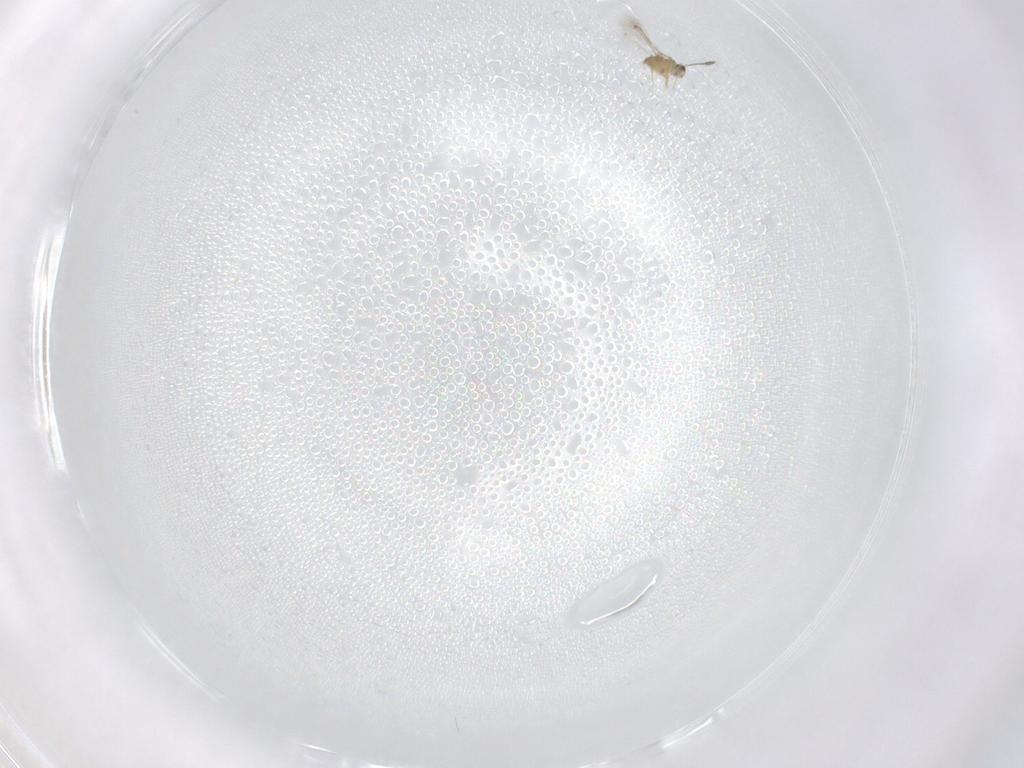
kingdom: Animalia
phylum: Arthropoda
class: Insecta
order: Hymenoptera
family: Mymaridae
